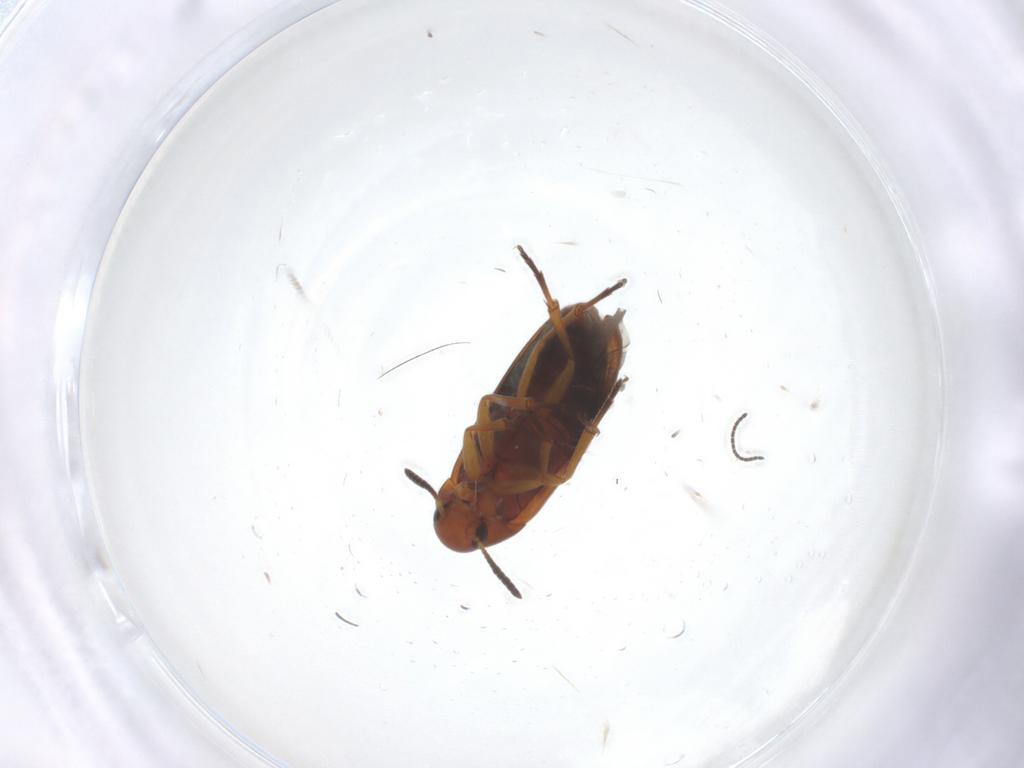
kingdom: Animalia
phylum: Arthropoda
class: Insecta
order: Coleoptera
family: Scraptiidae
